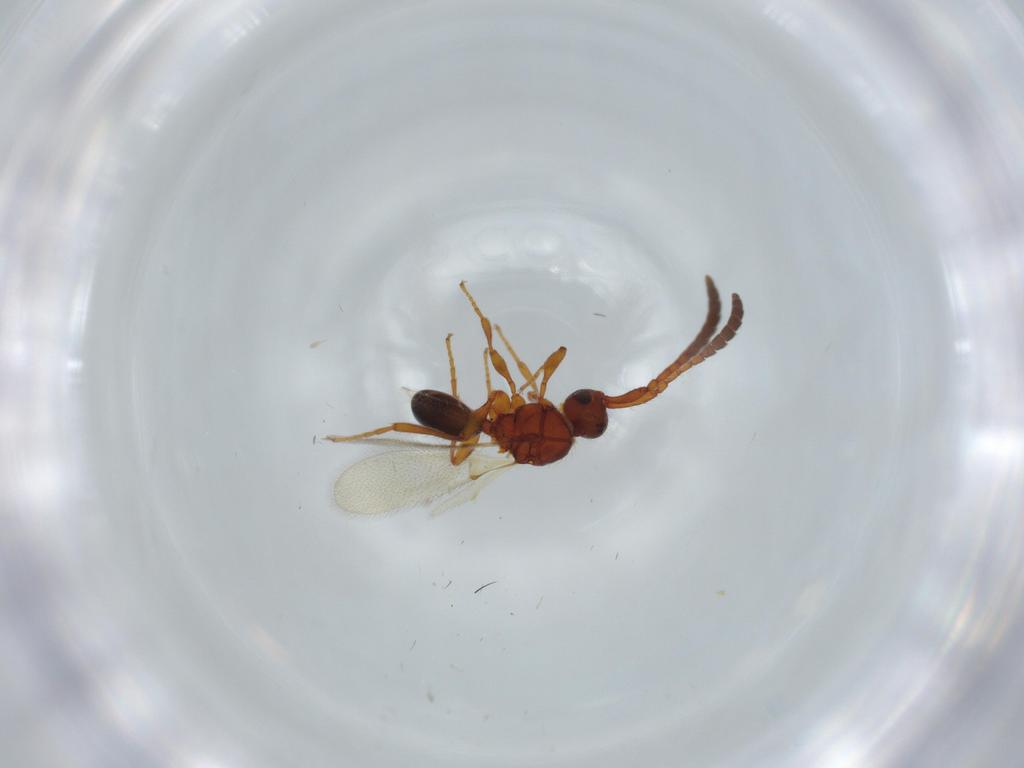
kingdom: Animalia
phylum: Arthropoda
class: Insecta
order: Hymenoptera
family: Diapriidae
